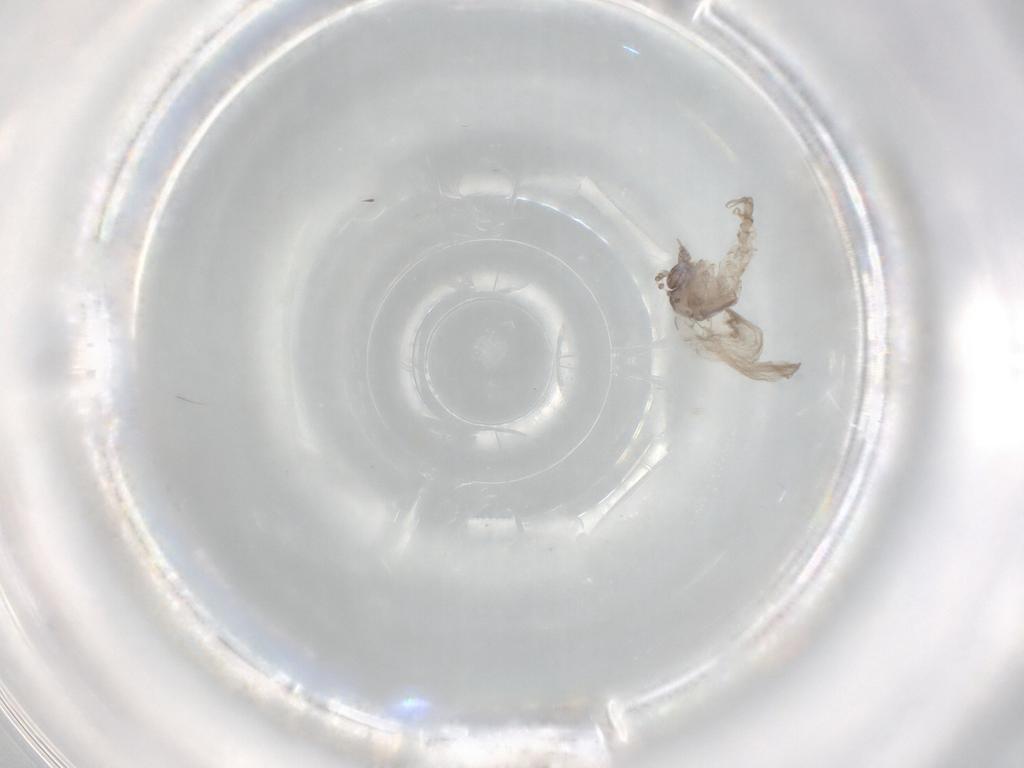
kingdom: Animalia
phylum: Arthropoda
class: Insecta
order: Diptera
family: Psychodidae
